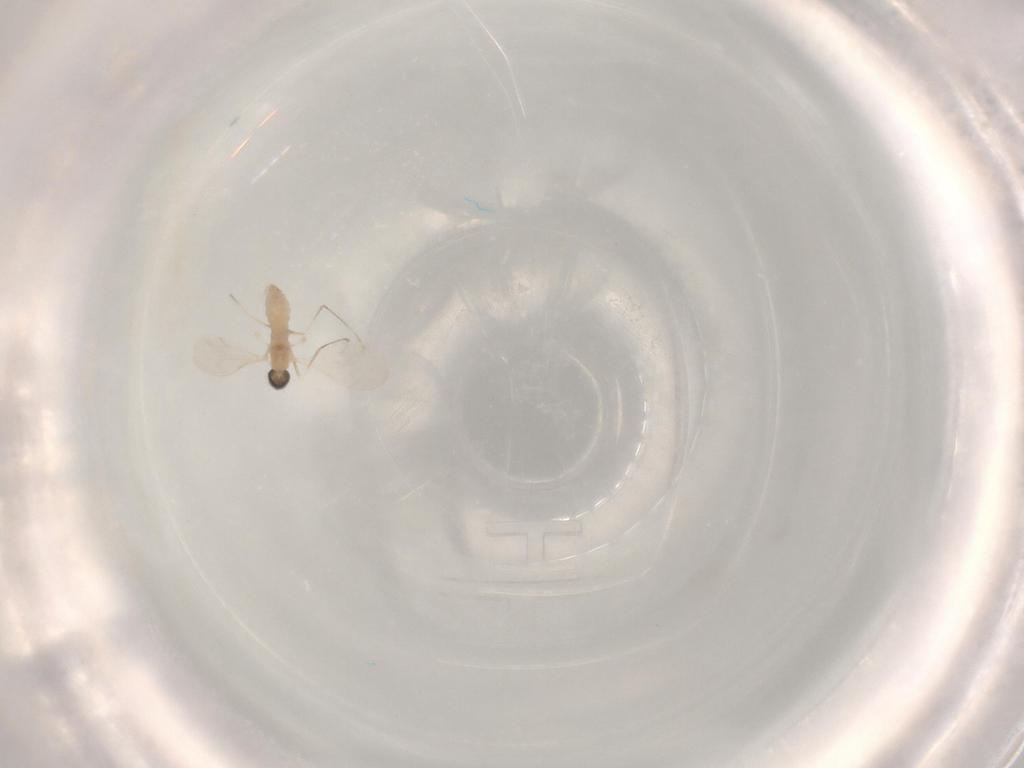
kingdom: Animalia
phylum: Arthropoda
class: Insecta
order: Diptera
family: Cecidomyiidae
